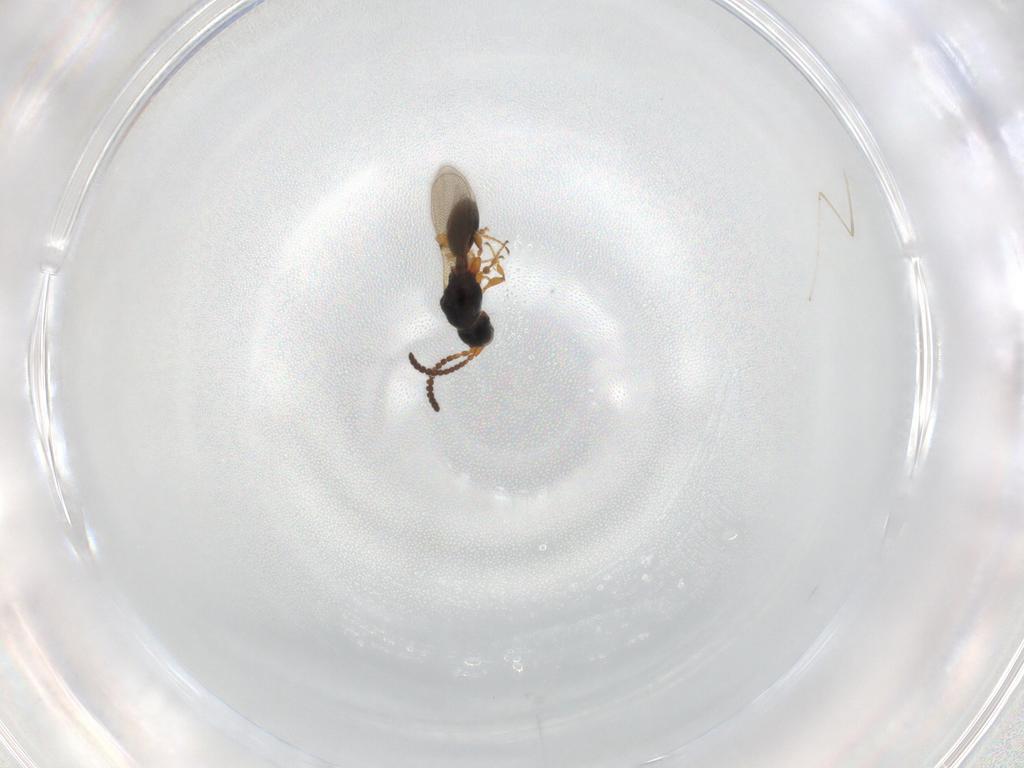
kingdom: Animalia
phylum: Arthropoda
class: Insecta
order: Hymenoptera
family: Diapriidae
